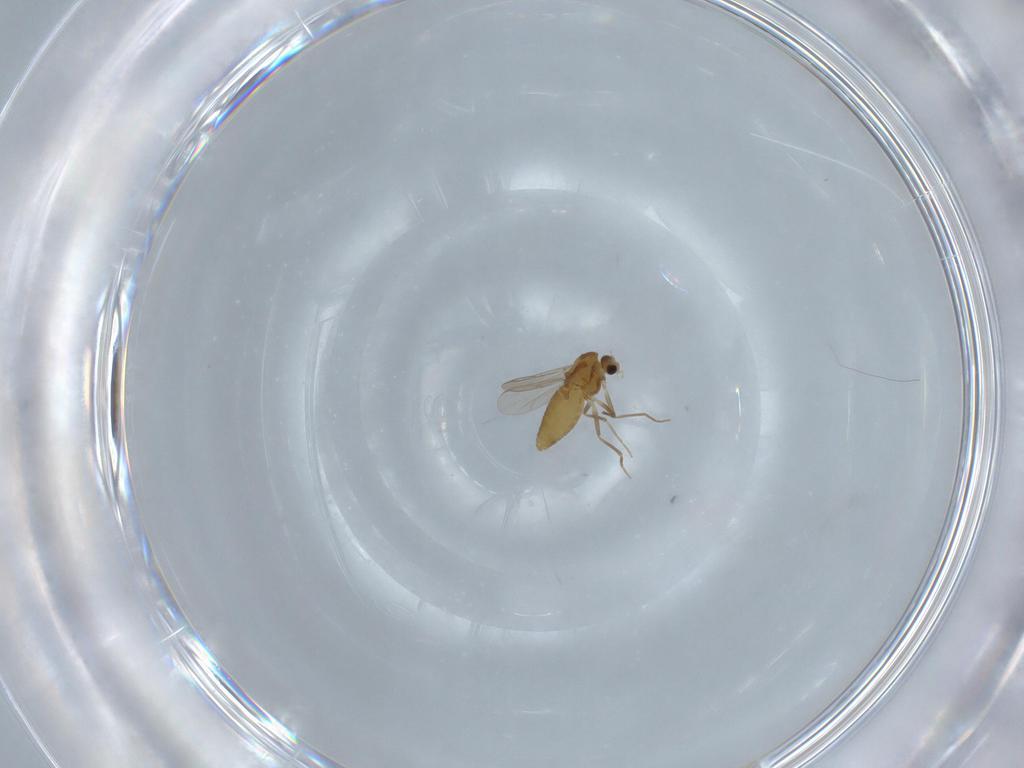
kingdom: Animalia
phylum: Arthropoda
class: Insecta
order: Diptera
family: Chironomidae
